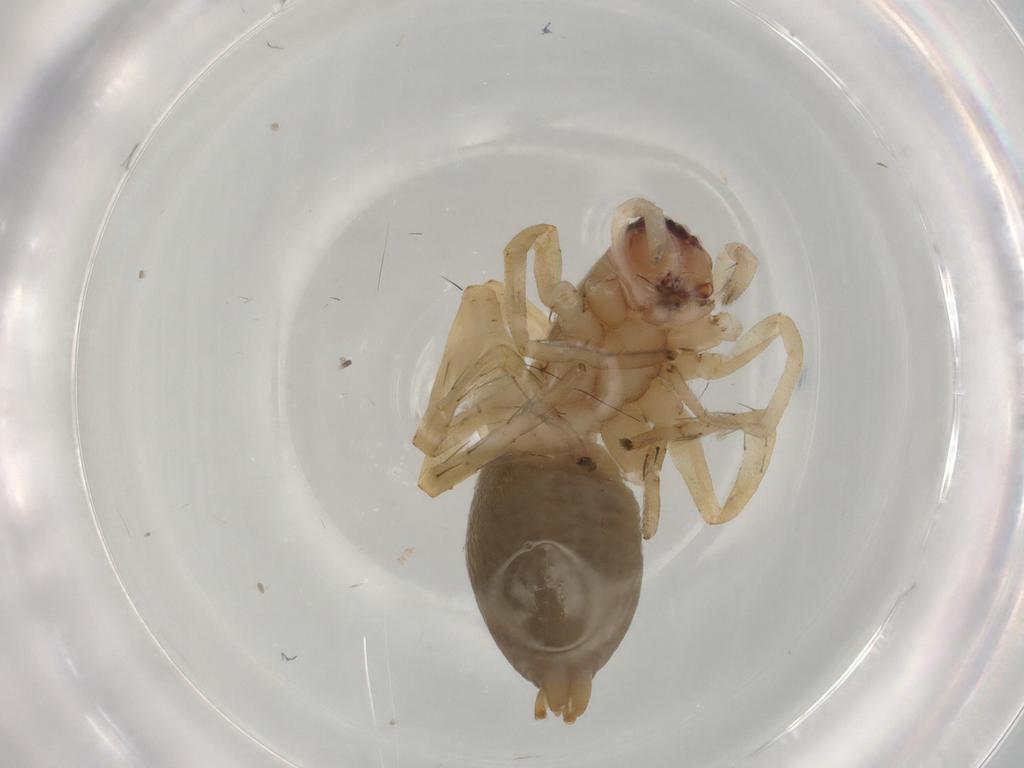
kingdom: Animalia
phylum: Arthropoda
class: Arachnida
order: Araneae
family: Clubionidae
